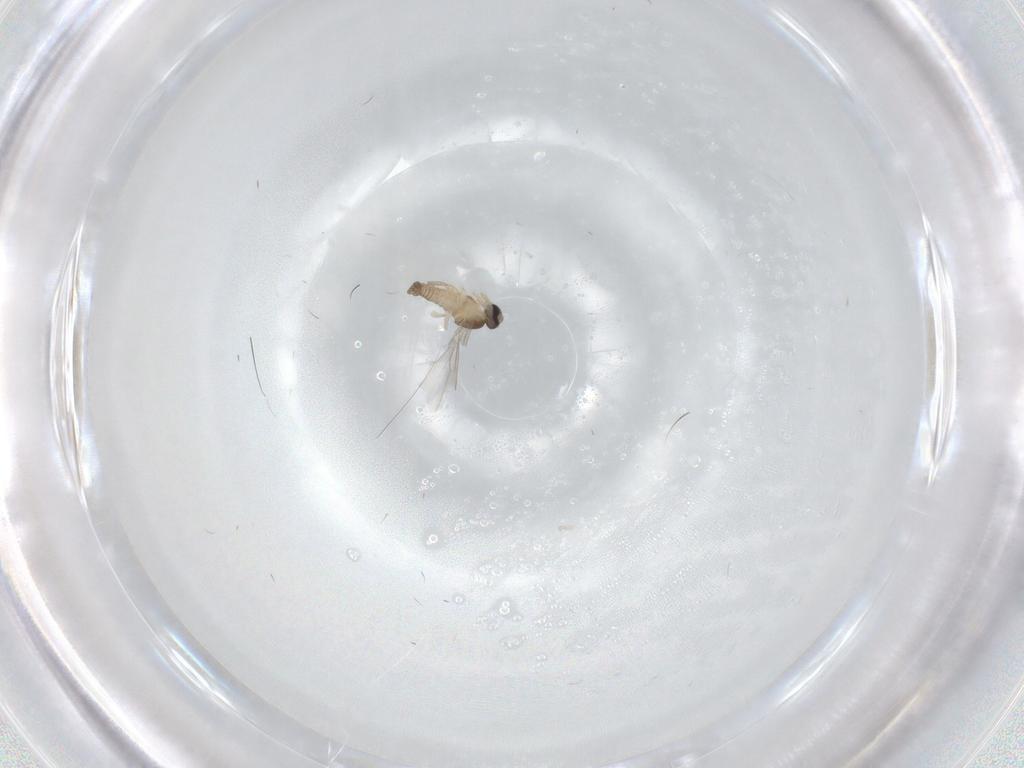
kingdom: Animalia
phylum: Arthropoda
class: Insecta
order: Diptera
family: Cecidomyiidae
